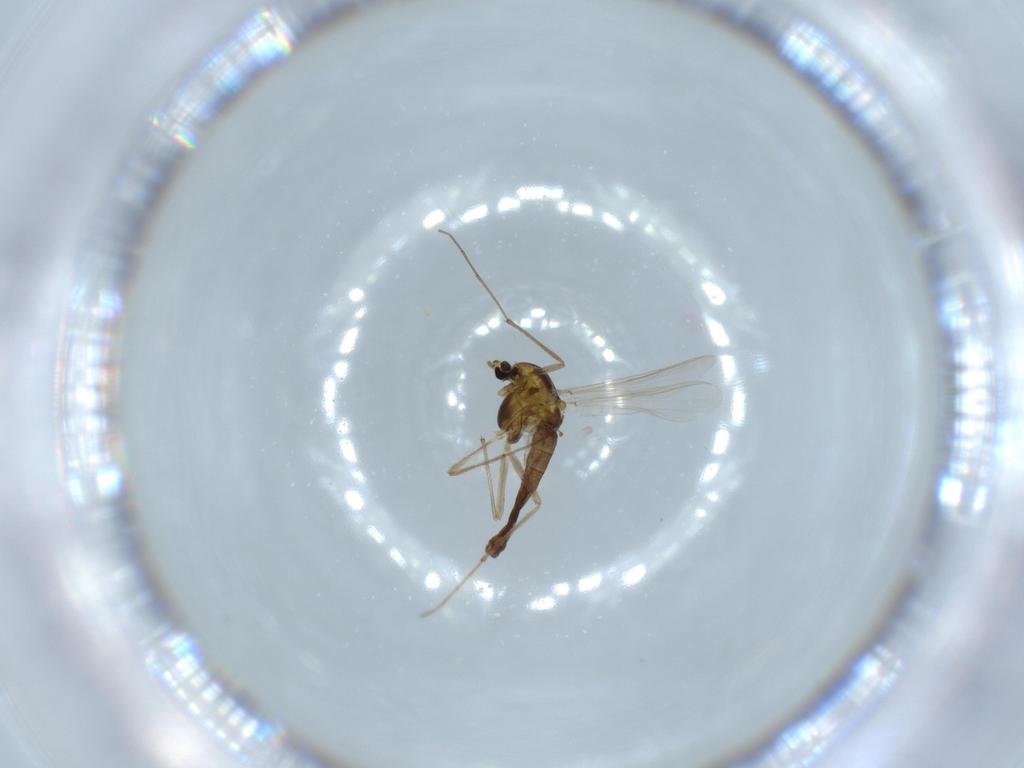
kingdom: Animalia
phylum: Arthropoda
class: Insecta
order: Diptera
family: Chironomidae
